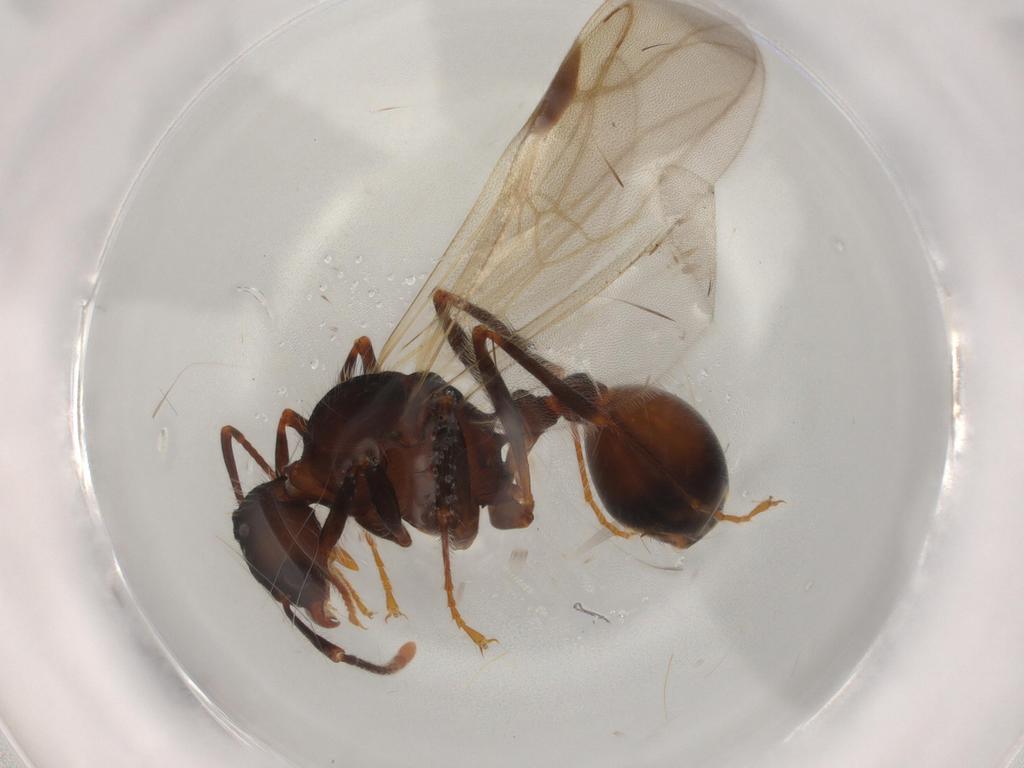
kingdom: Animalia
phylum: Arthropoda
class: Insecta
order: Hymenoptera
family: Formicidae
